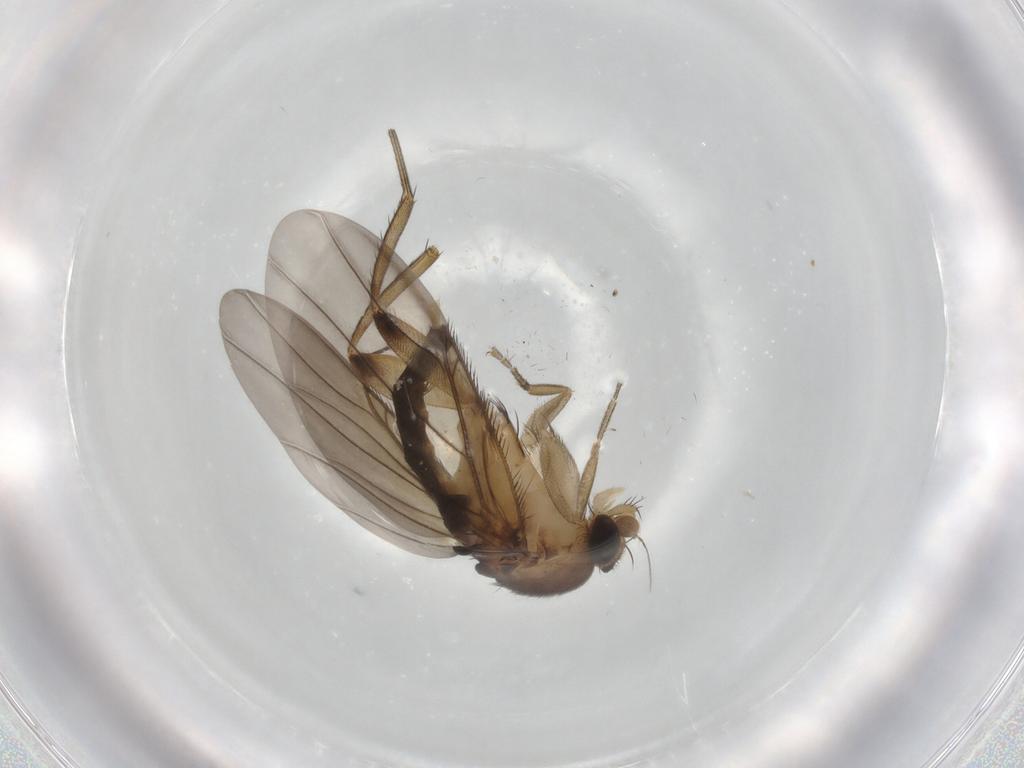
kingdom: Animalia
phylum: Arthropoda
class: Insecta
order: Diptera
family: Phoridae
